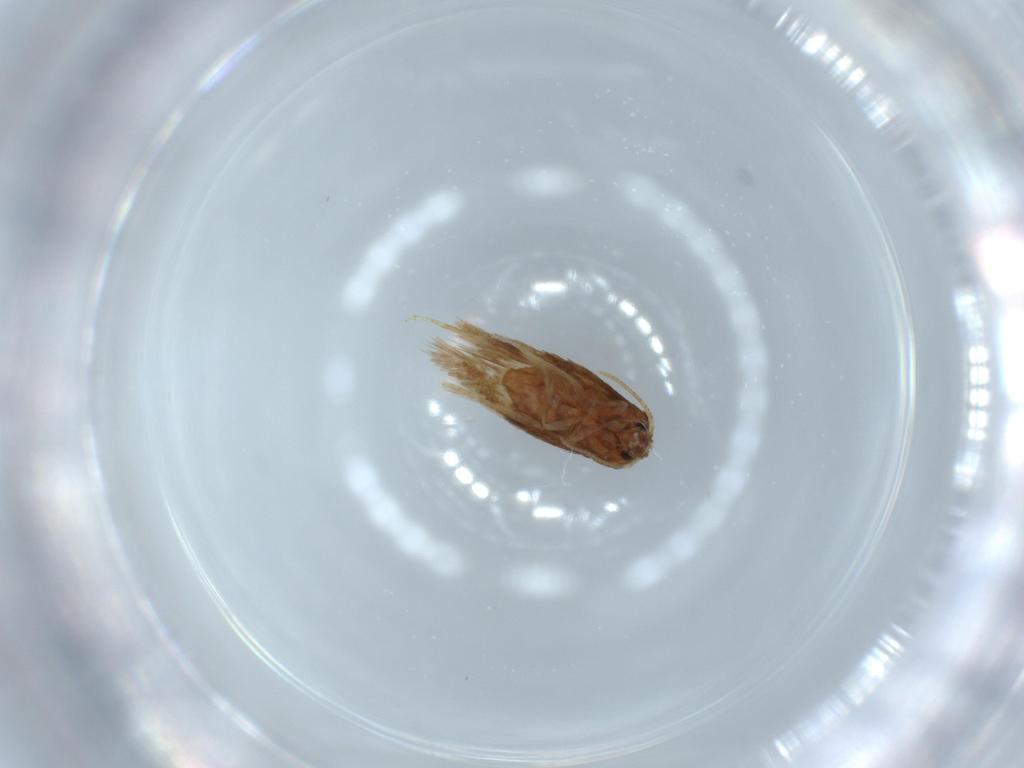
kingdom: Animalia
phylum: Arthropoda
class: Insecta
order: Lepidoptera
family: Nepticulidae
